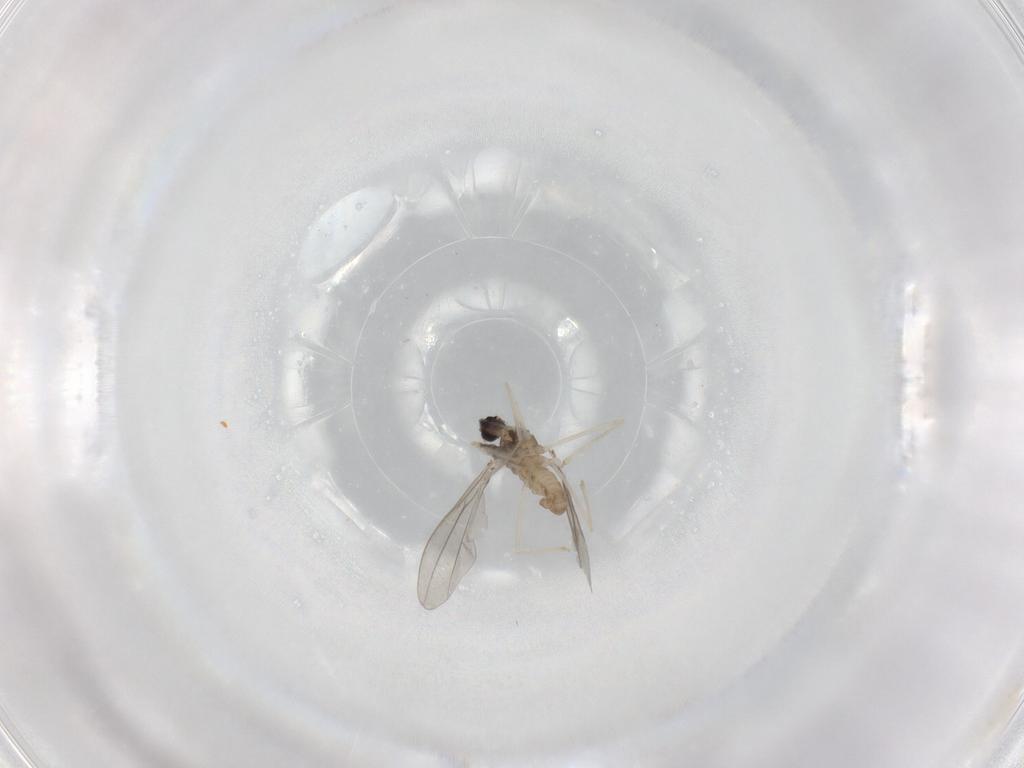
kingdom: Animalia
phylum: Arthropoda
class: Insecta
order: Diptera
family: Cecidomyiidae
